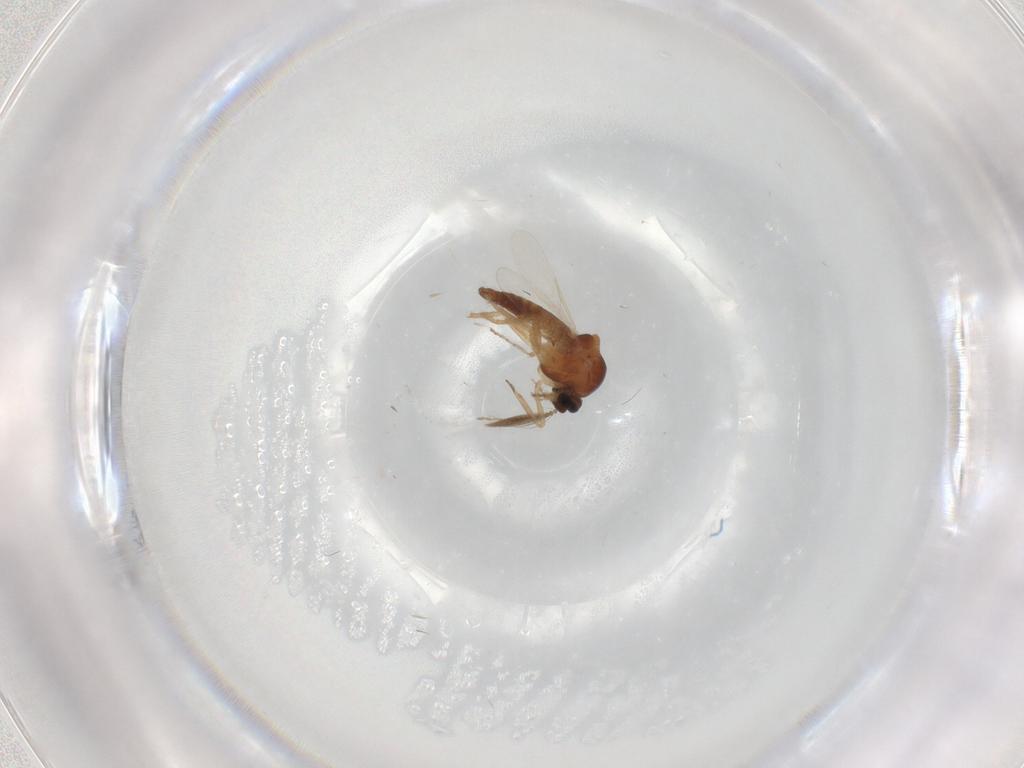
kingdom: Animalia
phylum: Arthropoda
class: Insecta
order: Diptera
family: Ceratopogonidae
